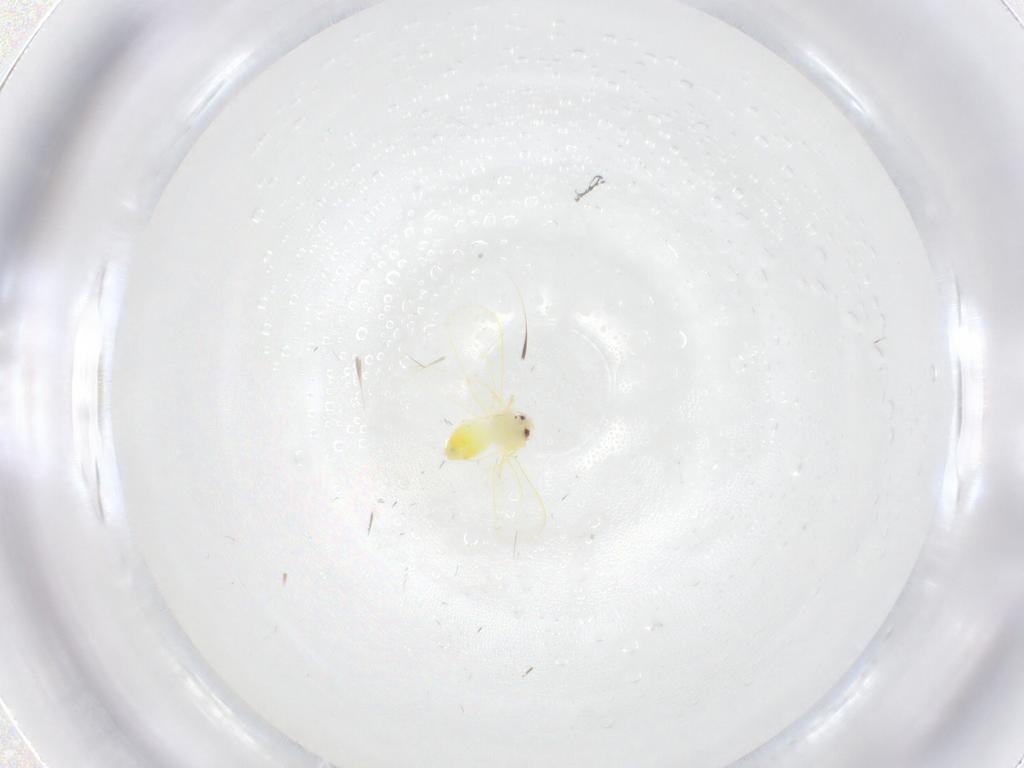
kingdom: Animalia
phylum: Arthropoda
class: Insecta
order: Hemiptera
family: Cixiidae
